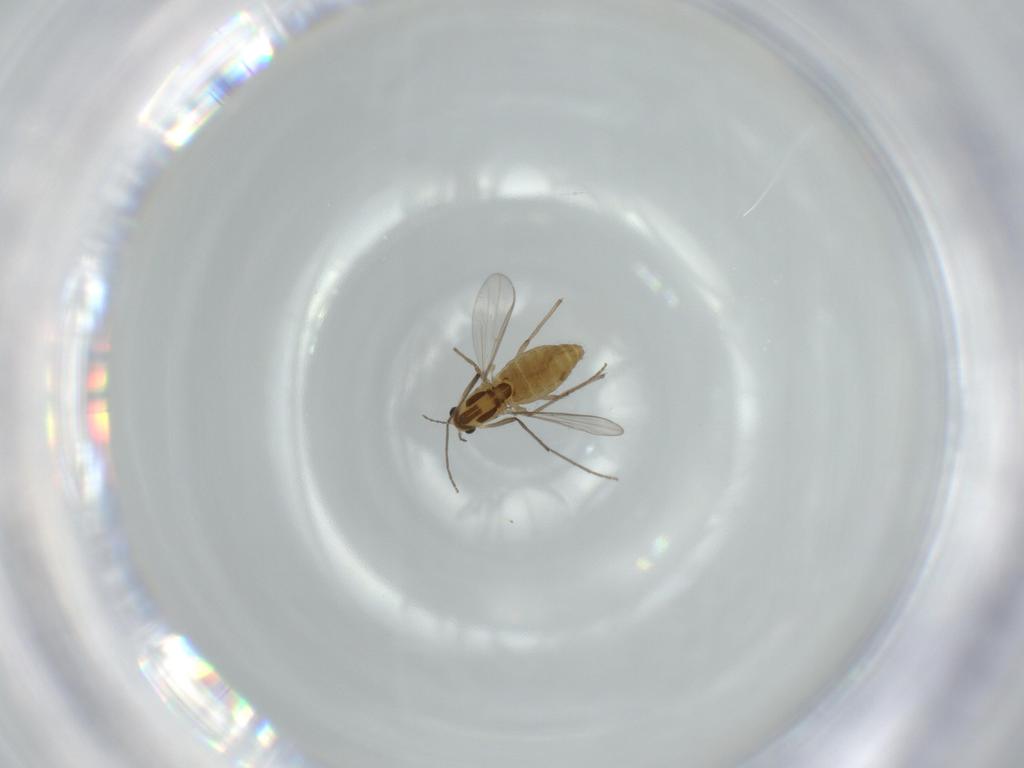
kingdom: Animalia
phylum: Arthropoda
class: Insecta
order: Diptera
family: Chironomidae
